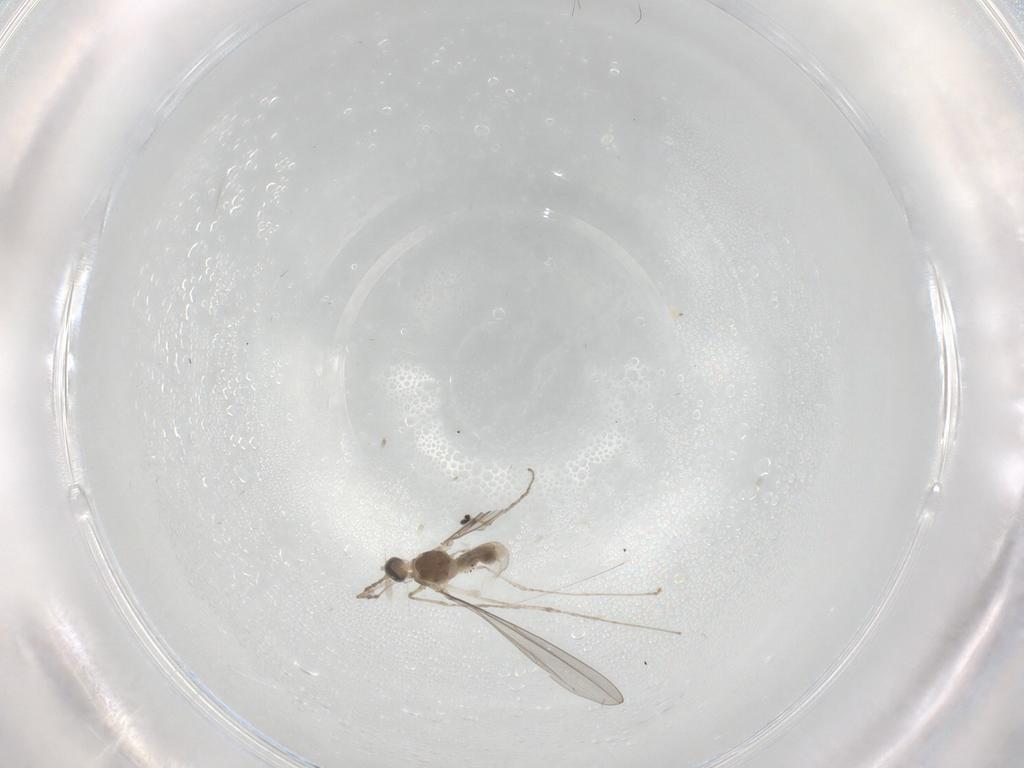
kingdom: Animalia
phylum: Arthropoda
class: Insecta
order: Diptera
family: Cecidomyiidae
